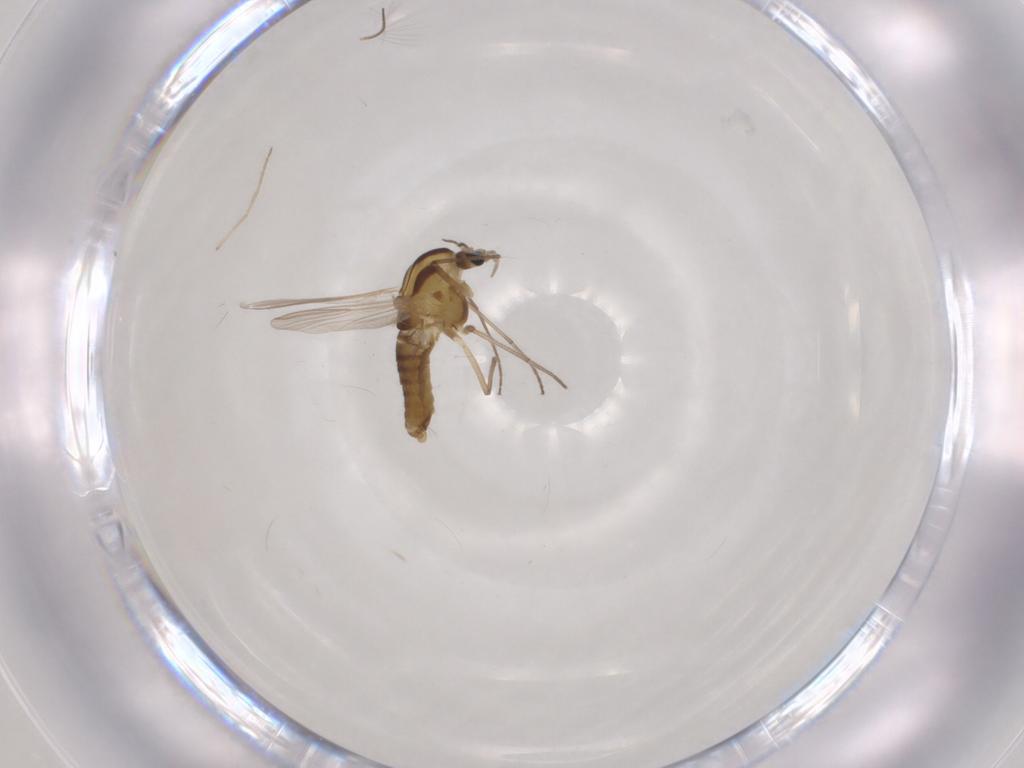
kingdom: Animalia
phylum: Arthropoda
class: Insecta
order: Diptera
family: Chironomidae
